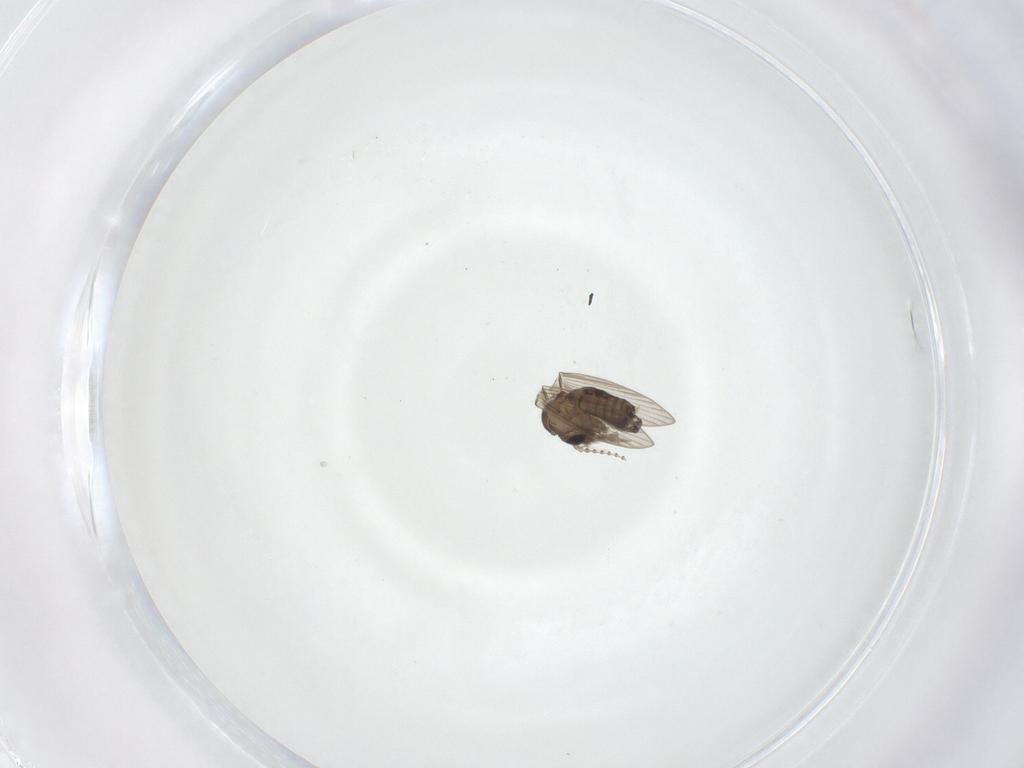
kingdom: Animalia
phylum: Arthropoda
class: Insecta
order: Diptera
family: Psychodidae
